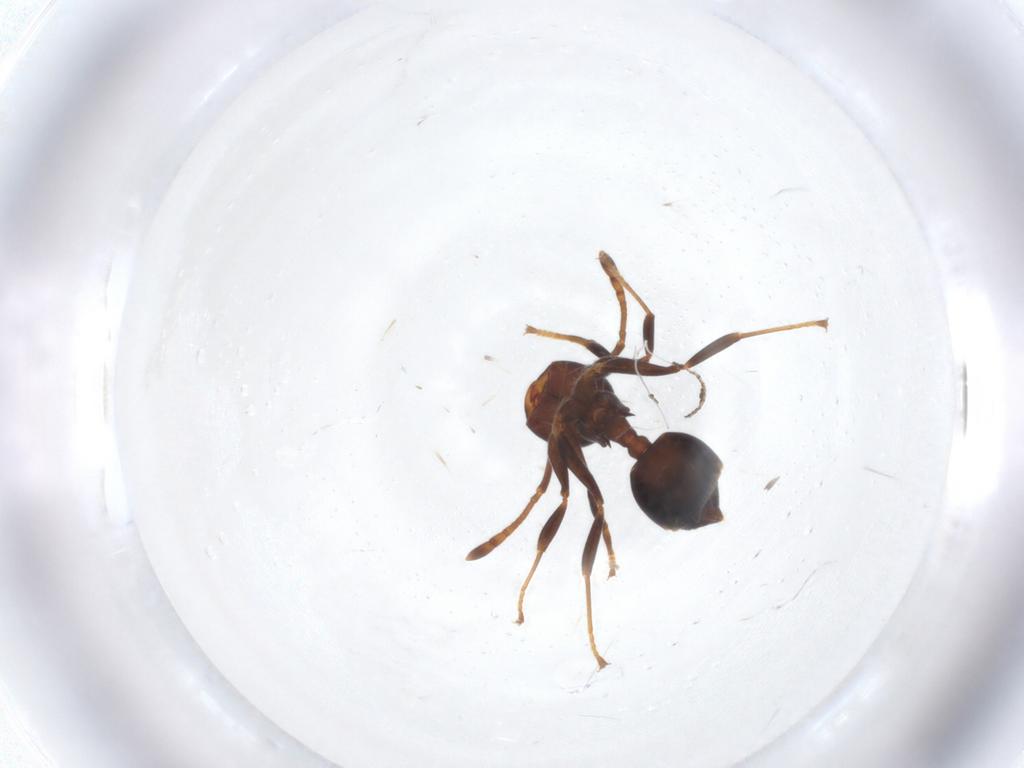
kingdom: Animalia
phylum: Arthropoda
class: Insecta
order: Hymenoptera
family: Formicidae
